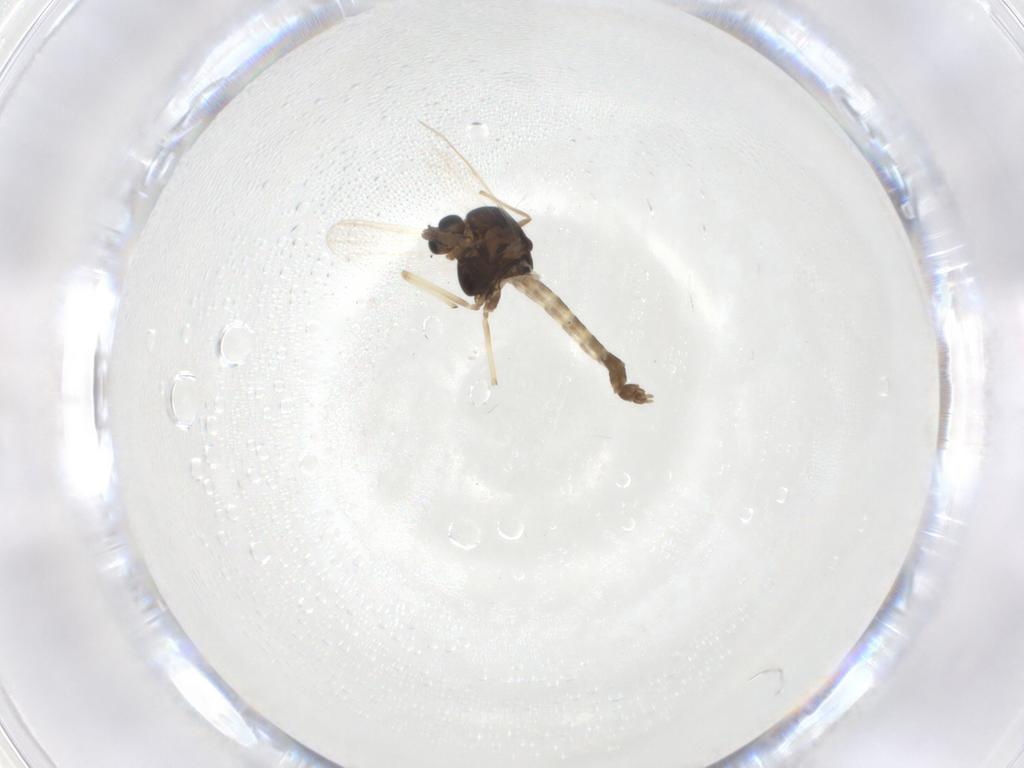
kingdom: Animalia
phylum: Arthropoda
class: Insecta
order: Diptera
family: Chironomidae
